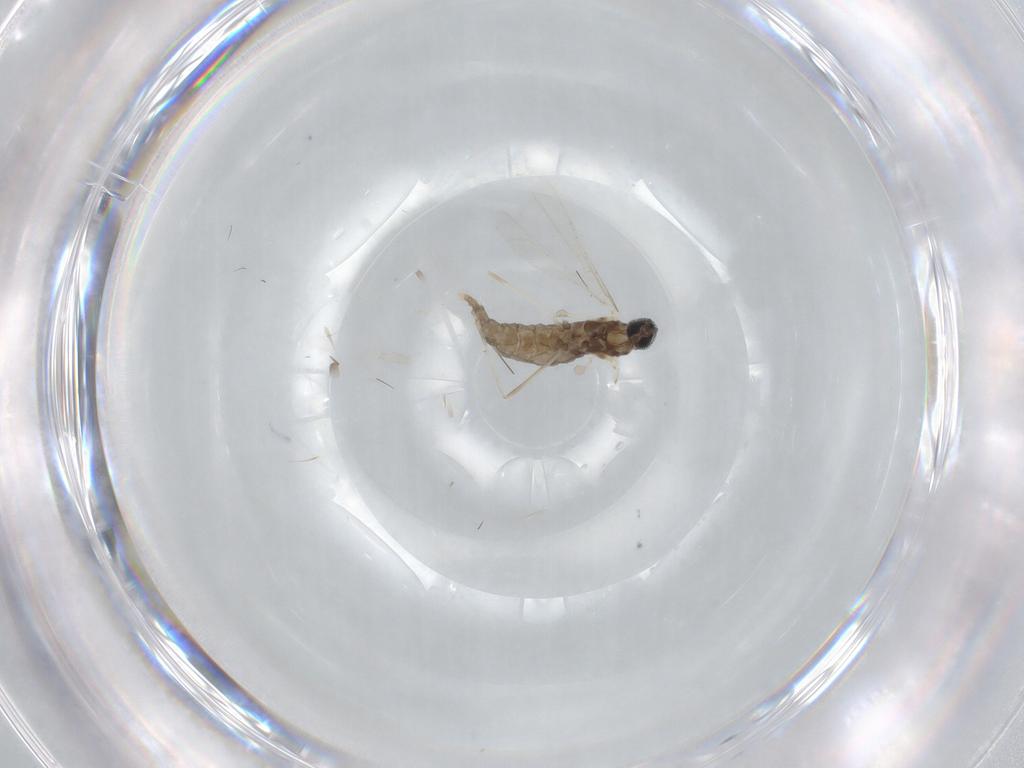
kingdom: Animalia
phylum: Arthropoda
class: Insecta
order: Diptera
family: Cecidomyiidae
